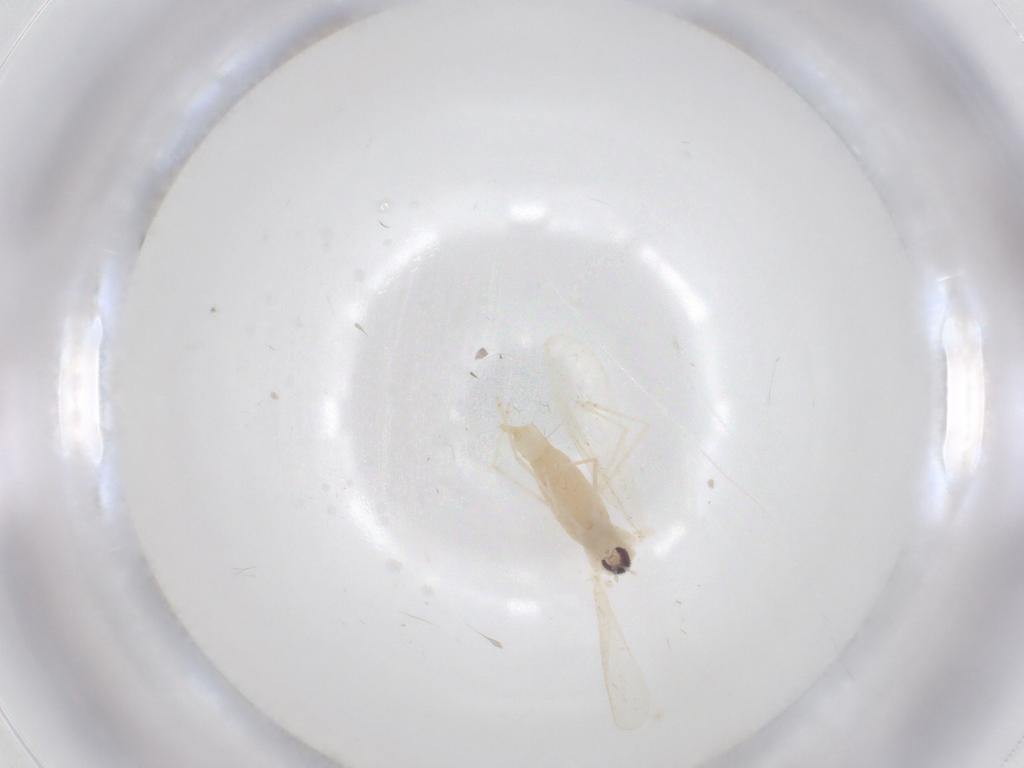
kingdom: Animalia
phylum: Arthropoda
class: Insecta
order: Diptera
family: Cecidomyiidae
